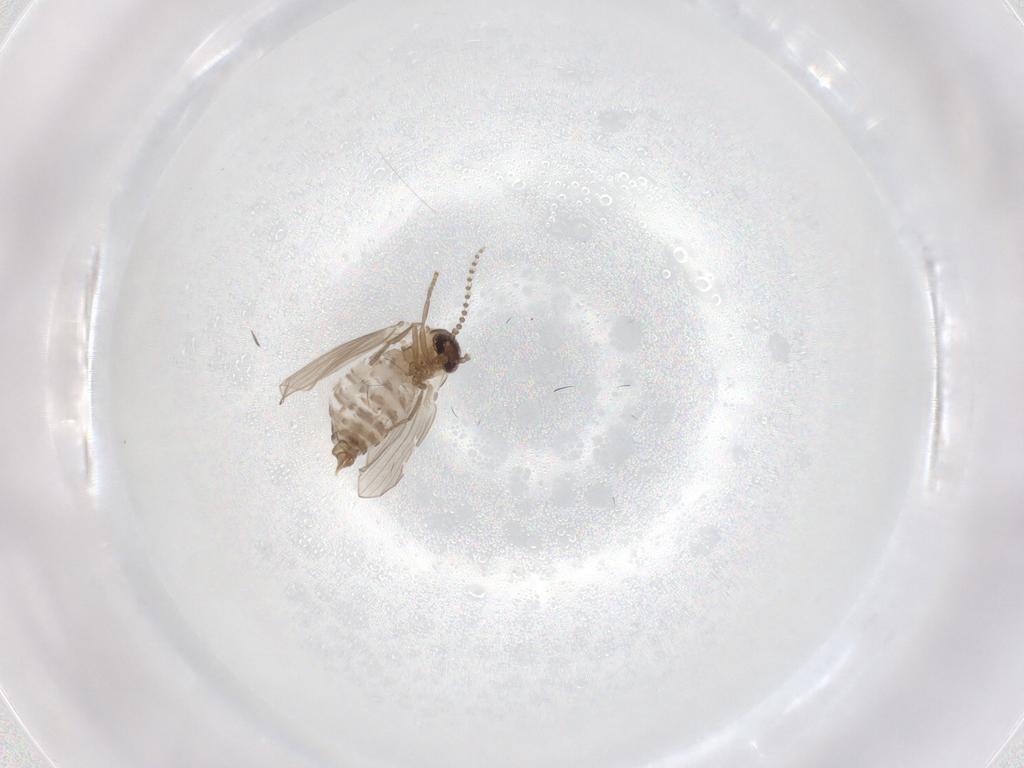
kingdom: Animalia
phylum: Arthropoda
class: Insecta
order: Diptera
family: Psychodidae
